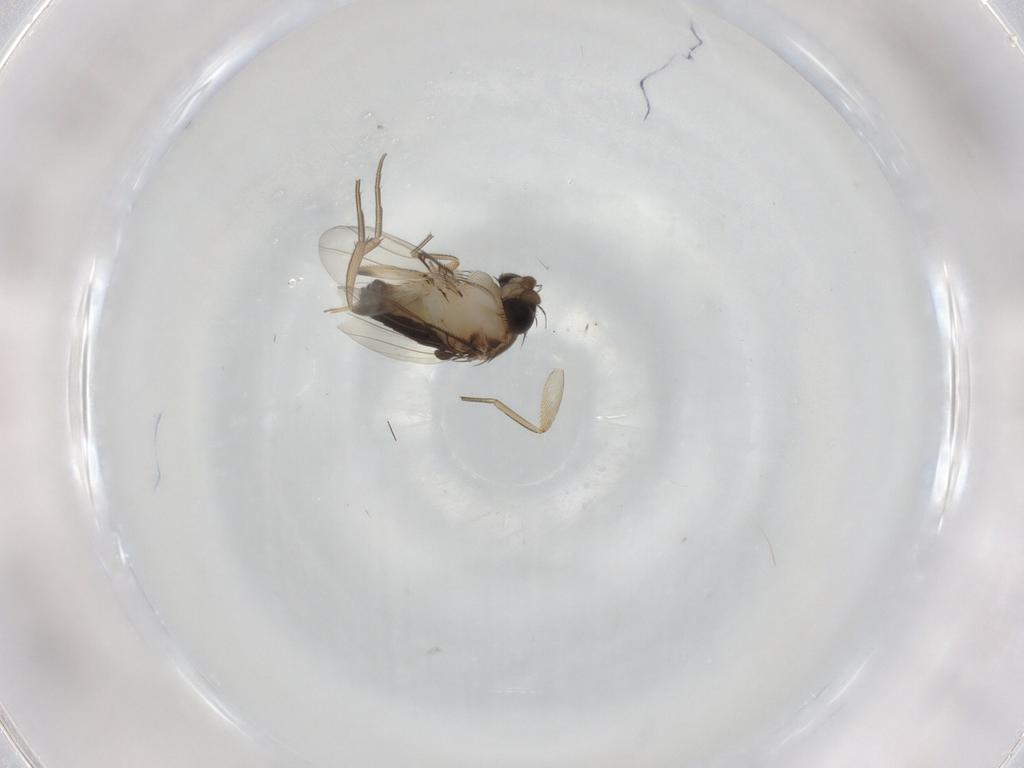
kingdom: Animalia
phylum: Arthropoda
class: Insecta
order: Diptera
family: Phoridae
